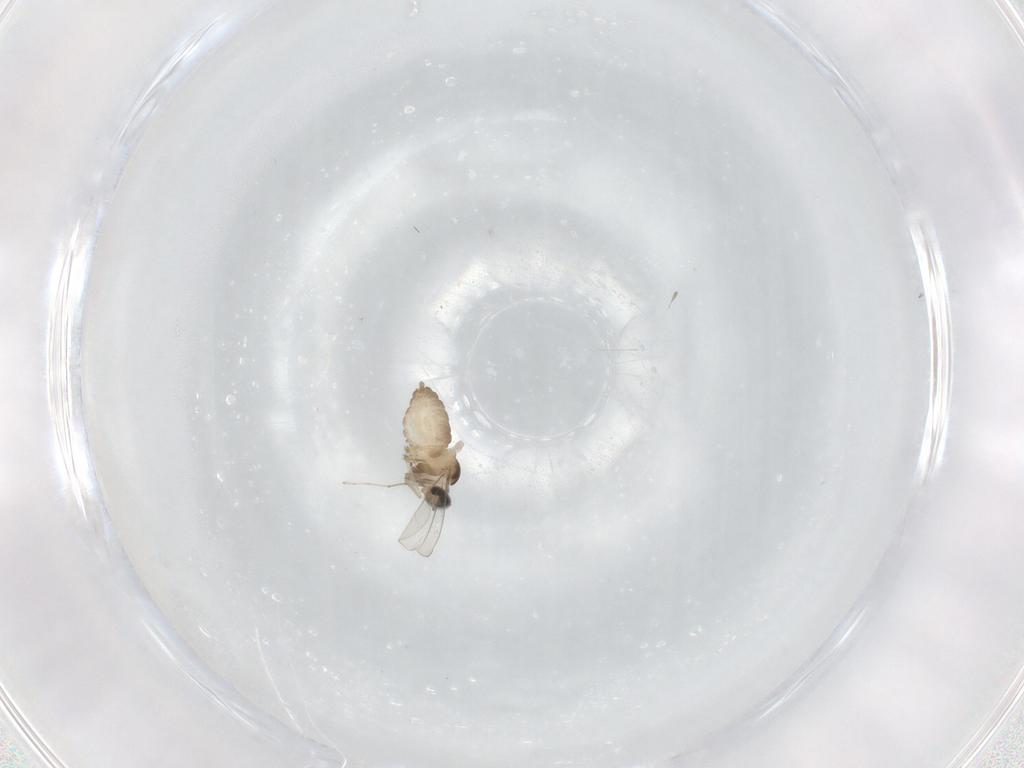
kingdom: Animalia
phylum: Arthropoda
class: Insecta
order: Diptera
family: Cecidomyiidae
